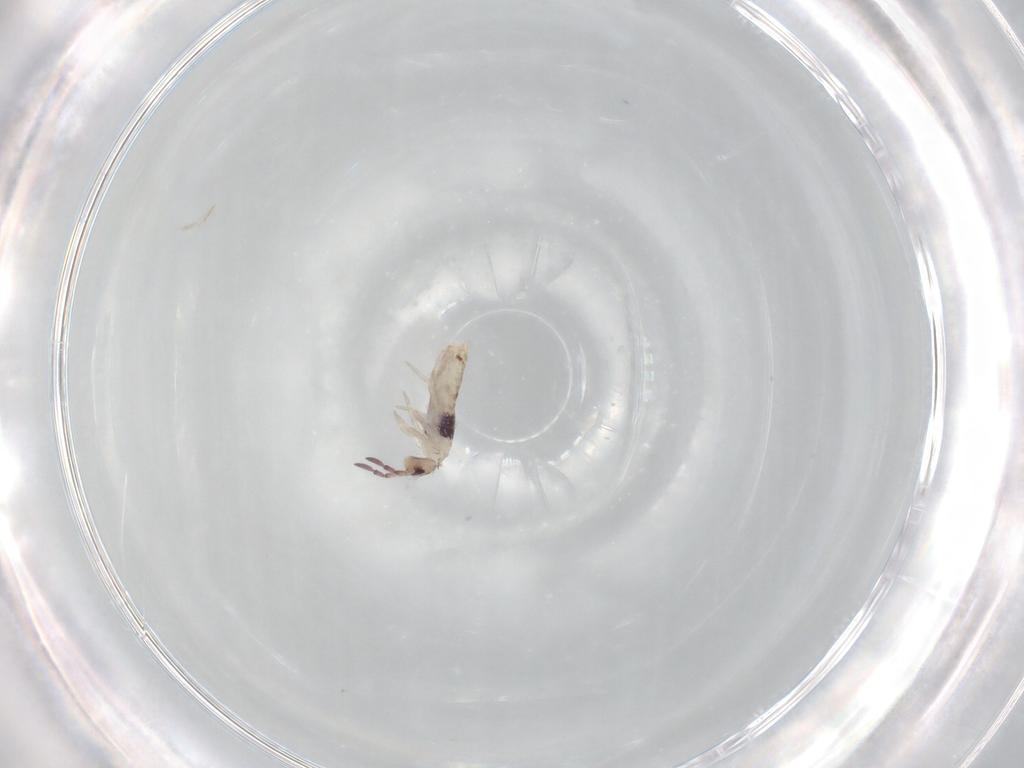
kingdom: Animalia
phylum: Arthropoda
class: Collembola
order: Entomobryomorpha
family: Entomobryidae
